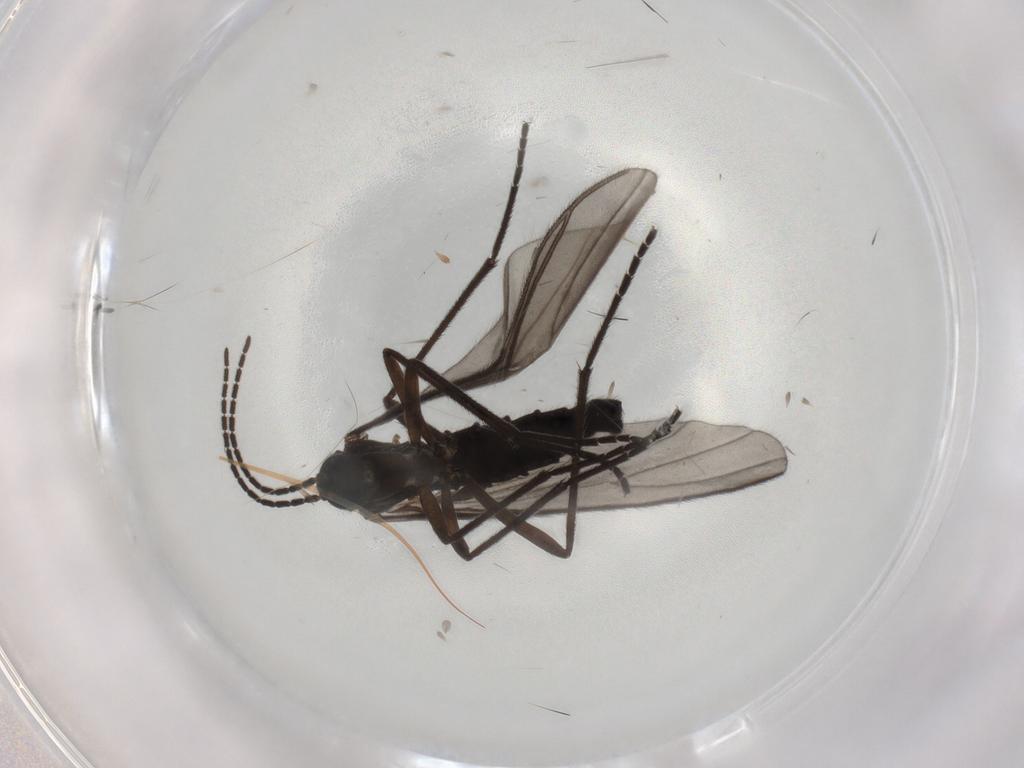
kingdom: Animalia
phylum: Arthropoda
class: Insecta
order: Diptera
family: Sciaridae
